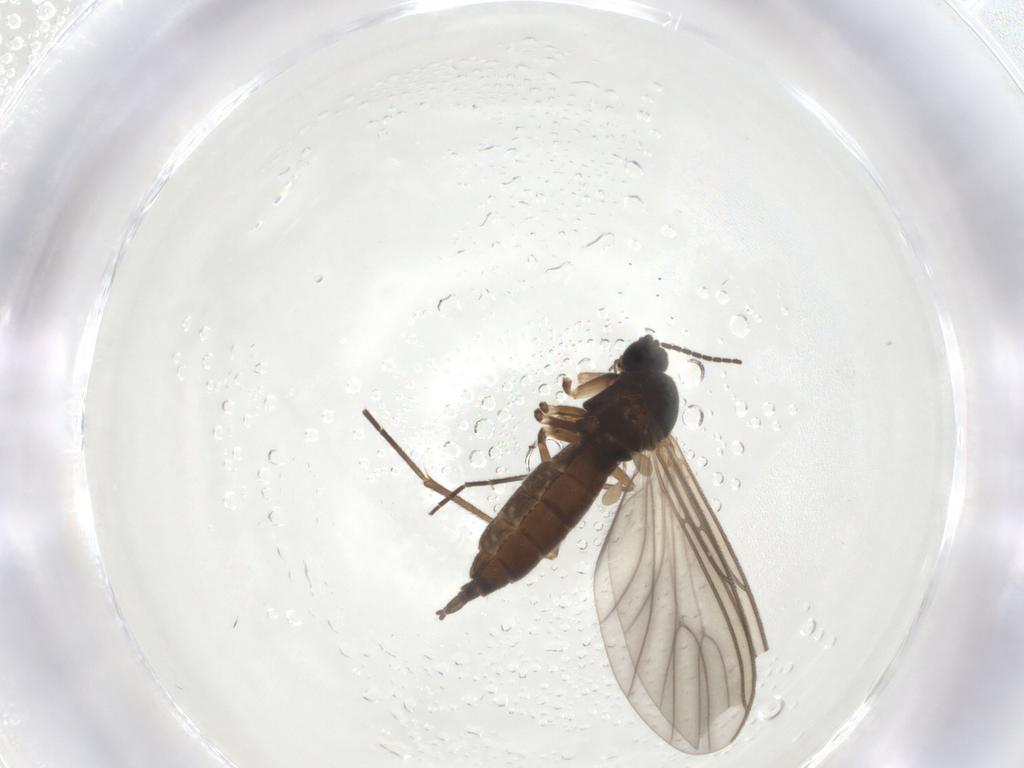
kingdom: Animalia
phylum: Arthropoda
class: Insecta
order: Diptera
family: Sciaridae
